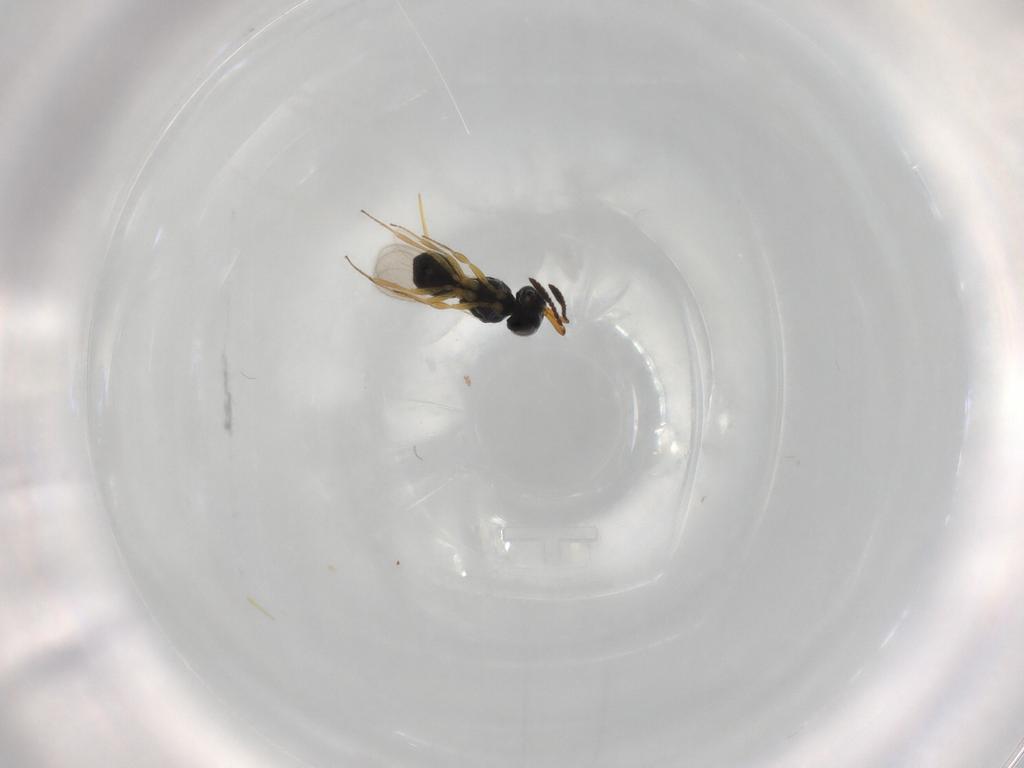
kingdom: Animalia
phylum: Arthropoda
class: Insecta
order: Hymenoptera
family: Scelionidae
